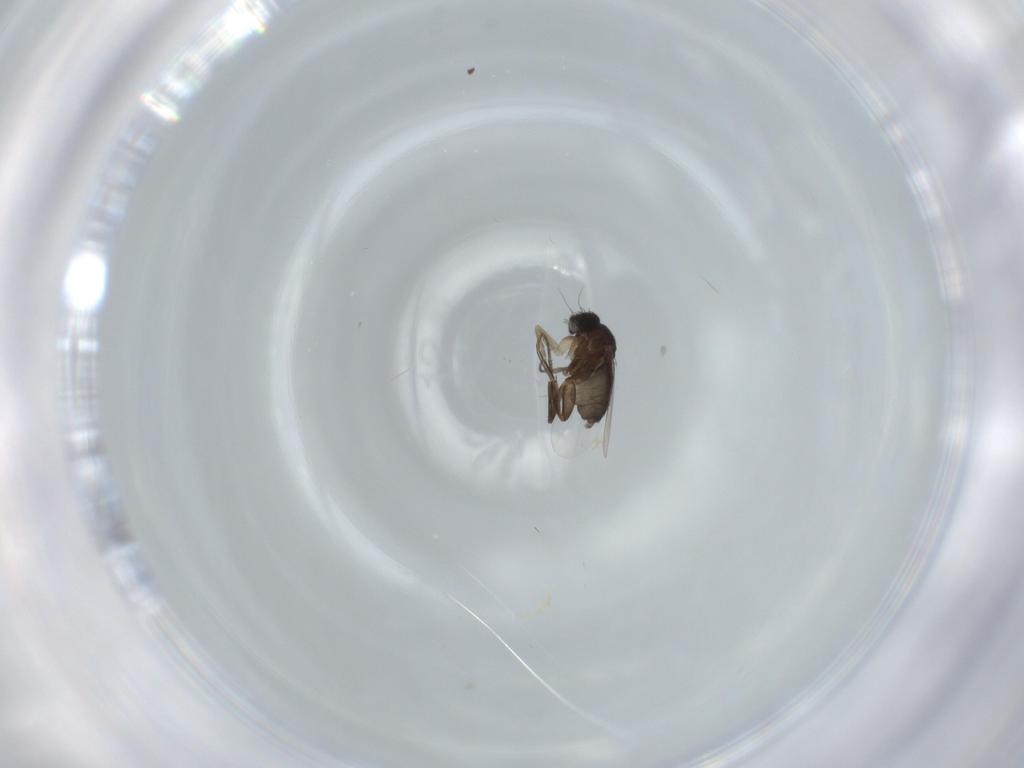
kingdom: Animalia
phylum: Arthropoda
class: Insecta
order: Diptera
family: Phoridae
